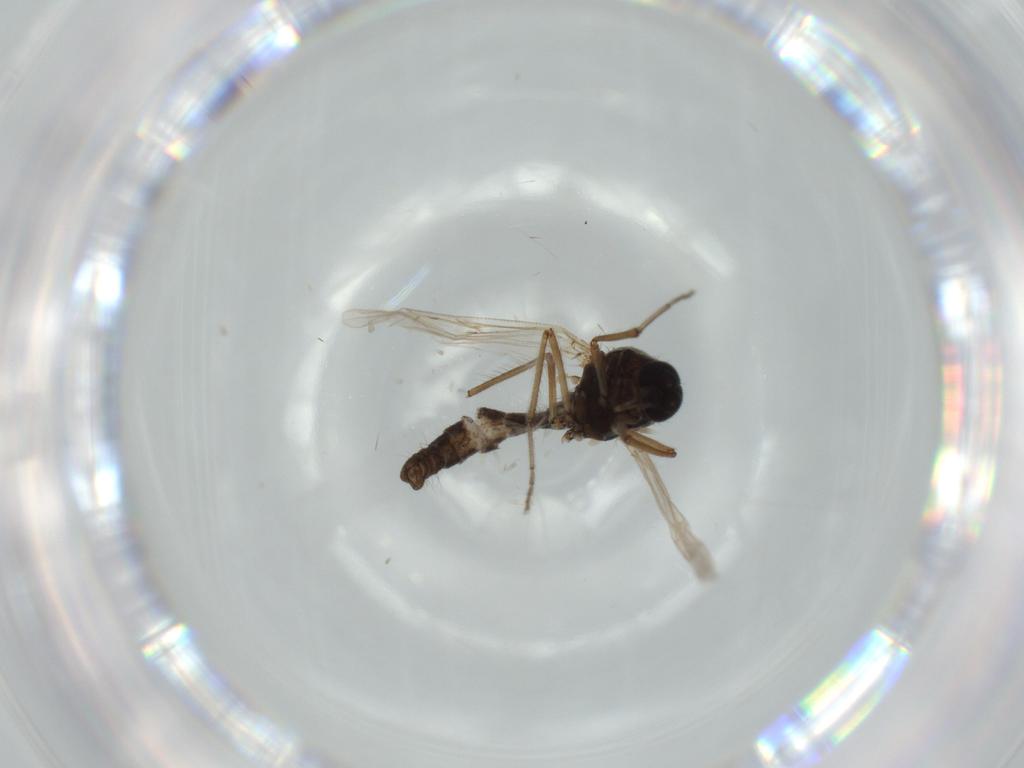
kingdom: Animalia
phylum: Arthropoda
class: Insecta
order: Diptera
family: Ceratopogonidae
